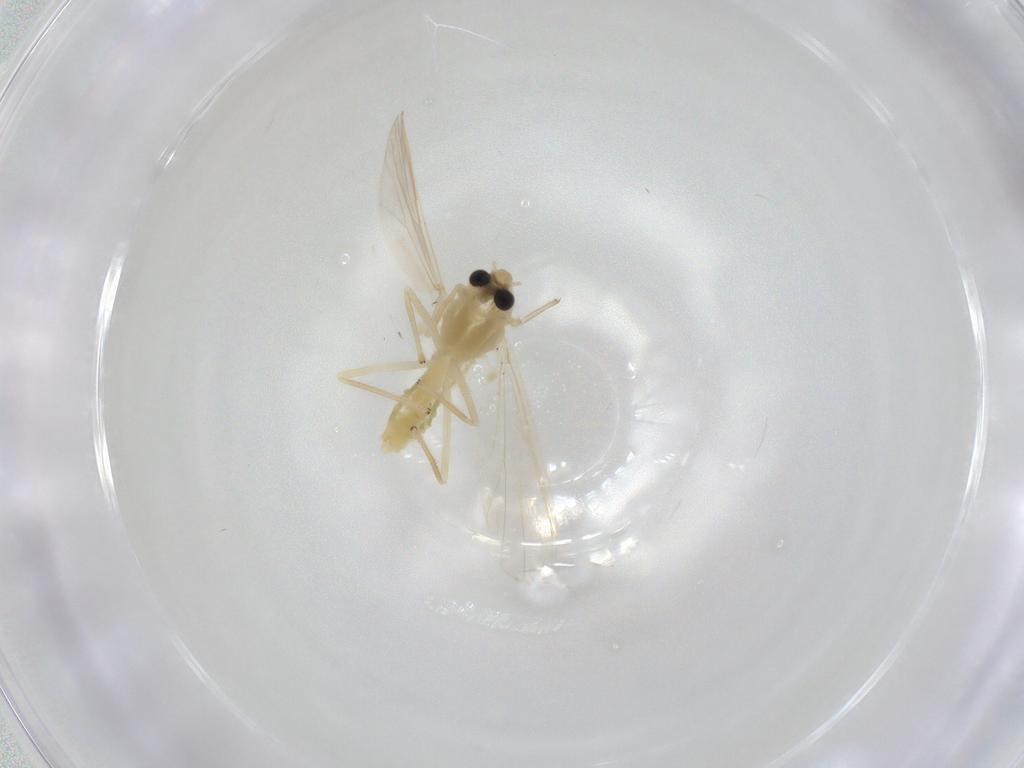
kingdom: Animalia
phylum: Arthropoda
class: Insecta
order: Diptera
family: Chironomidae
